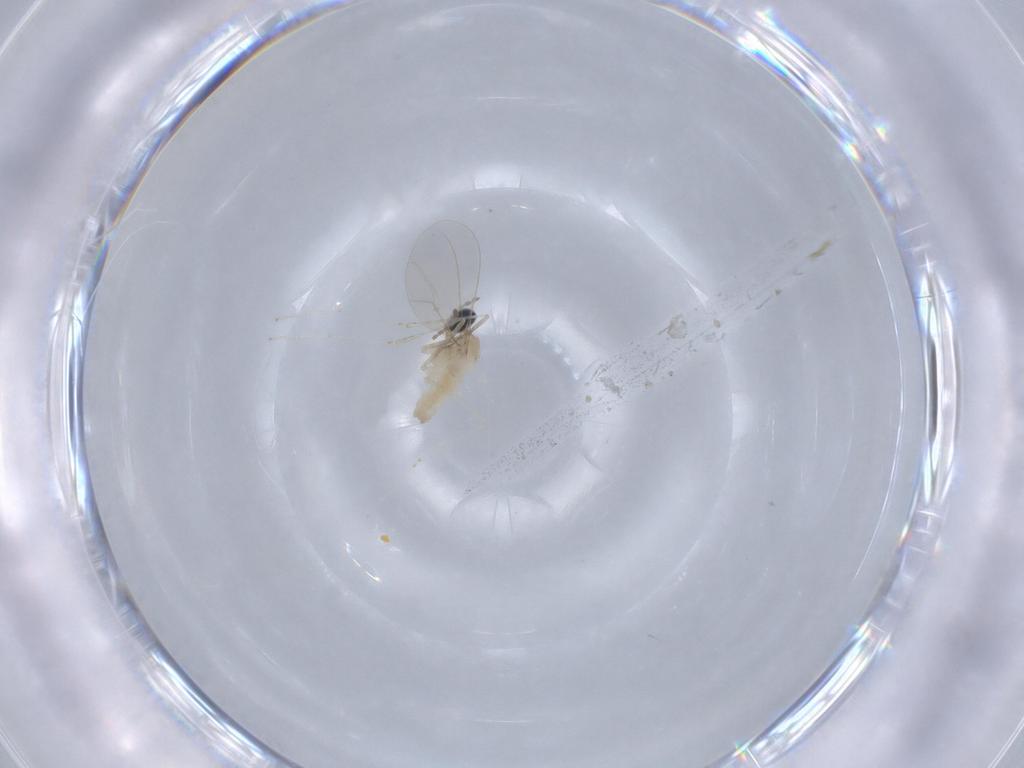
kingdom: Animalia
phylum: Arthropoda
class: Insecta
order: Diptera
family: Cecidomyiidae
